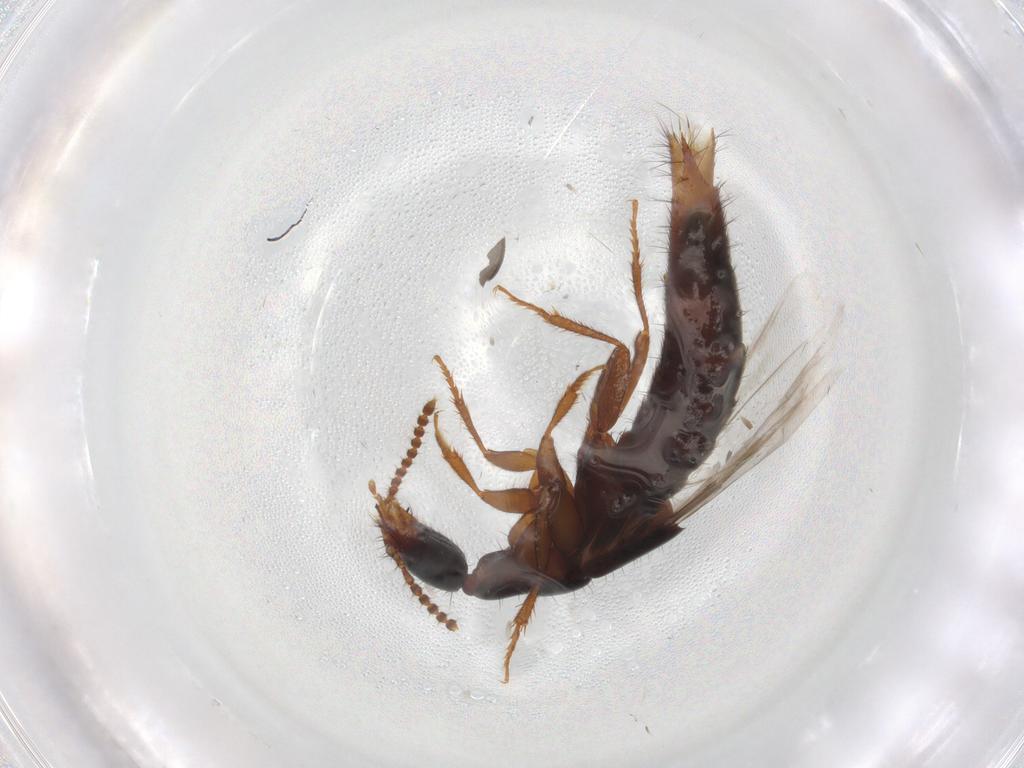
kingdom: Animalia
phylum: Arthropoda
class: Insecta
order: Coleoptera
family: Staphylinidae
